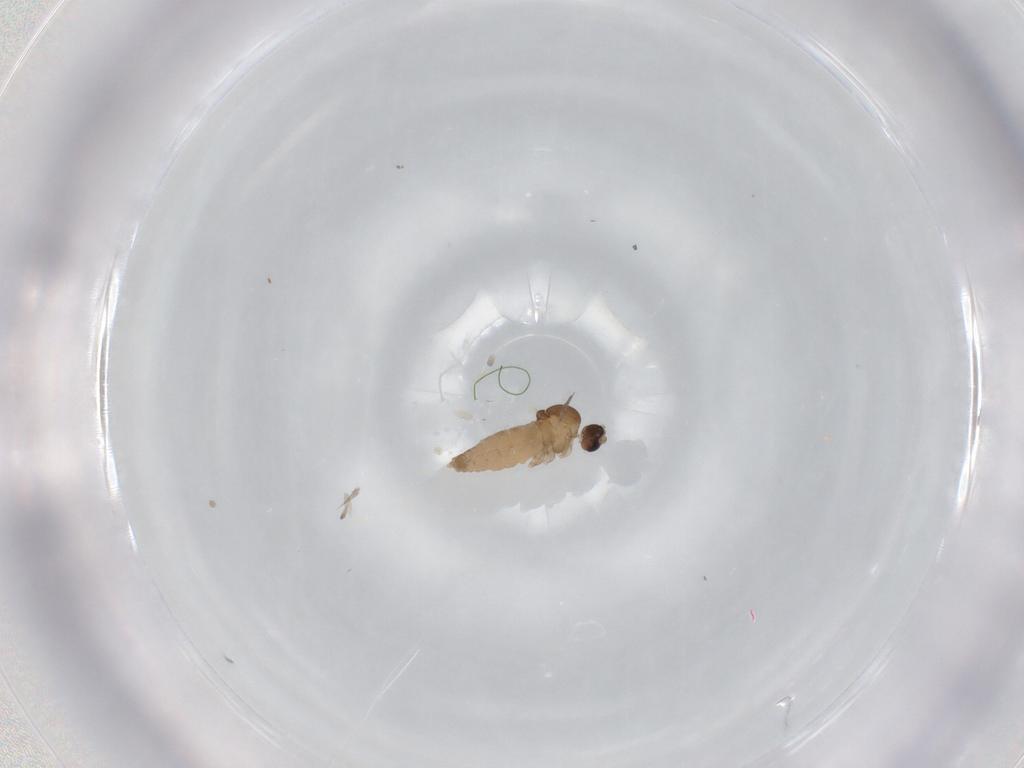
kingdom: Animalia
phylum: Arthropoda
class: Insecta
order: Diptera
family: Cecidomyiidae
